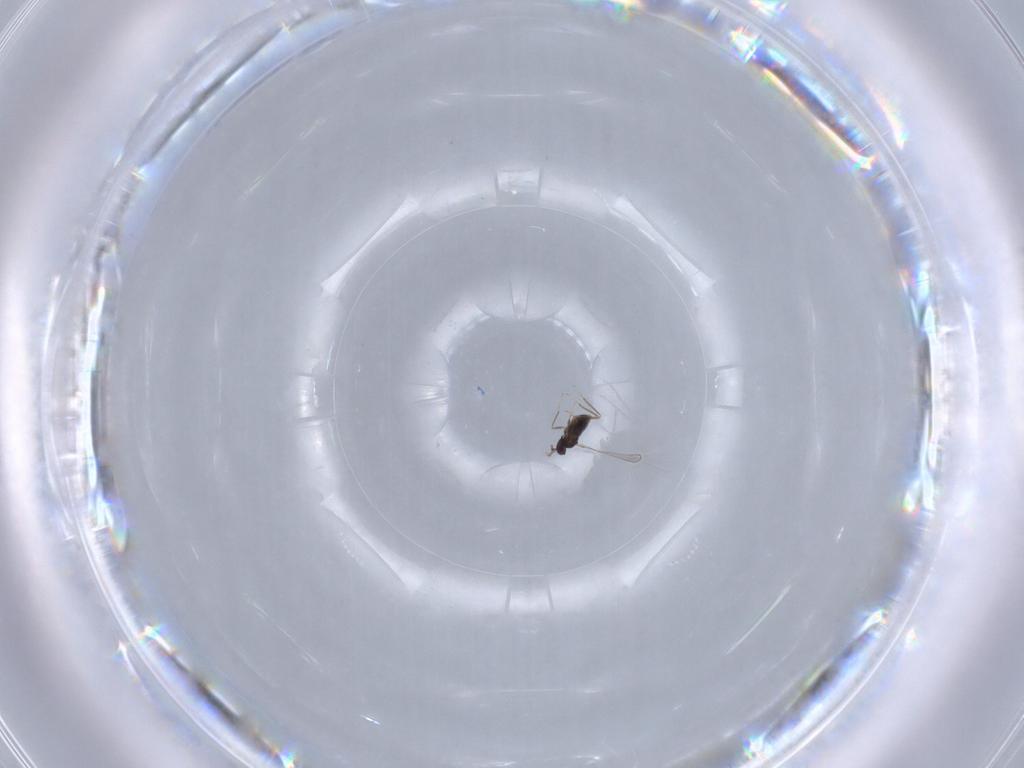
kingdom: Animalia
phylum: Arthropoda
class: Insecta
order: Hymenoptera
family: Mymaridae
